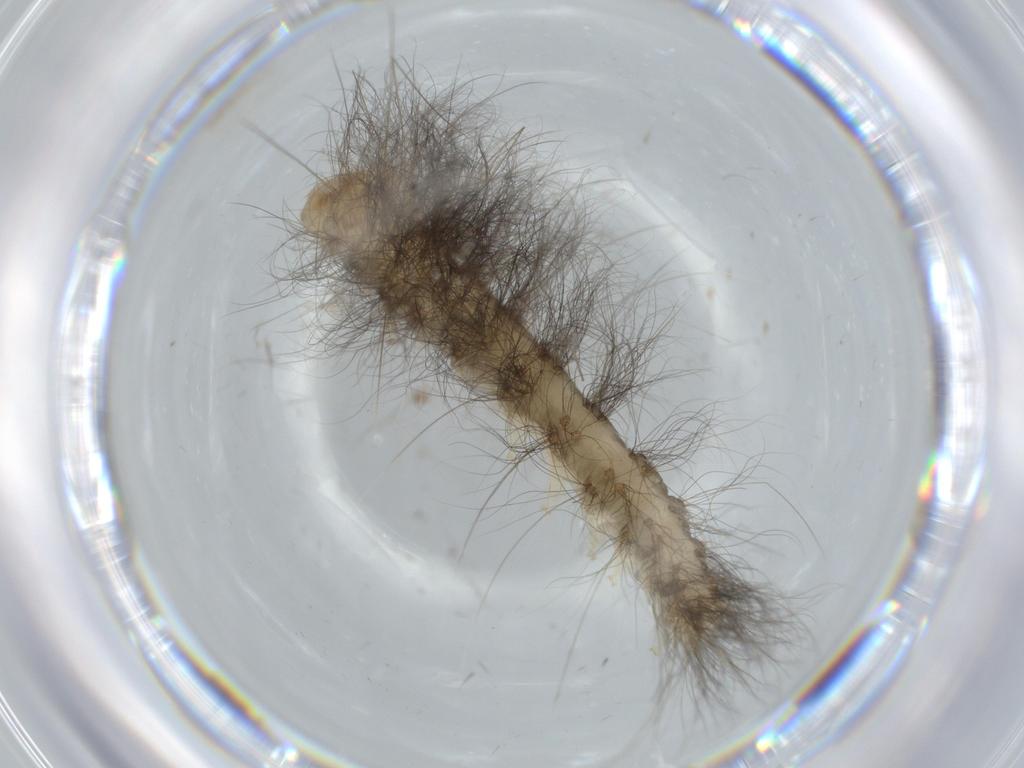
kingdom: Animalia
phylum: Arthropoda
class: Insecta
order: Lepidoptera
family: Apatelodidae
